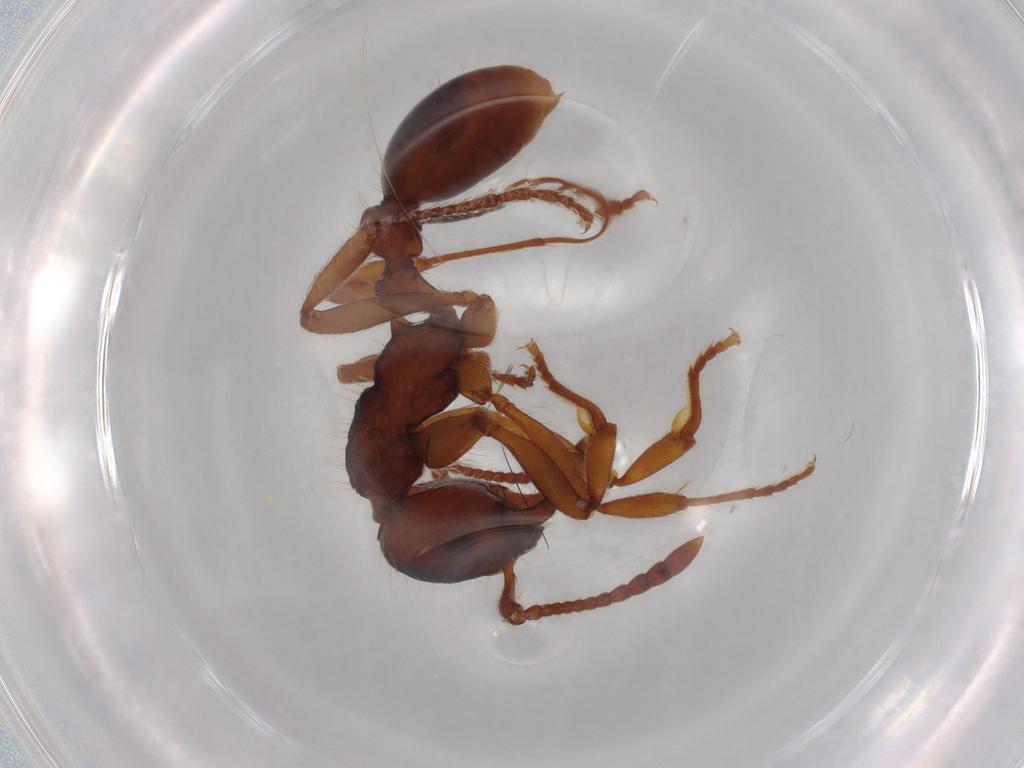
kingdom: Animalia
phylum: Arthropoda
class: Insecta
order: Hymenoptera
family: Formicidae
